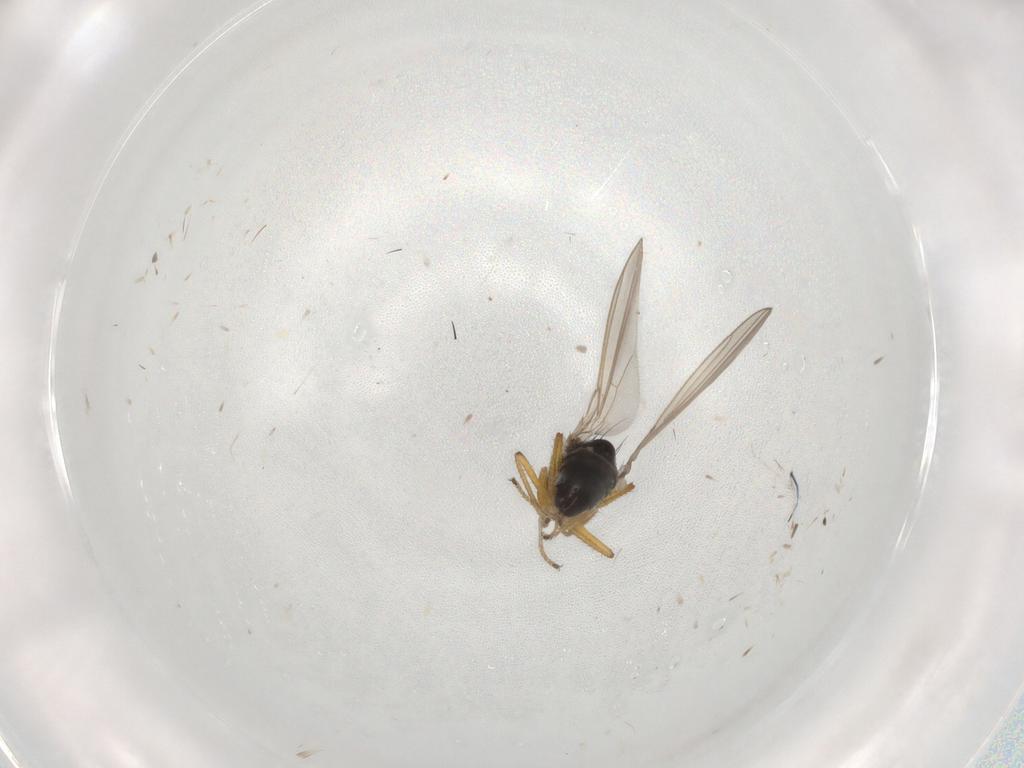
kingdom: Animalia
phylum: Arthropoda
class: Insecta
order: Diptera
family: Ephydridae
